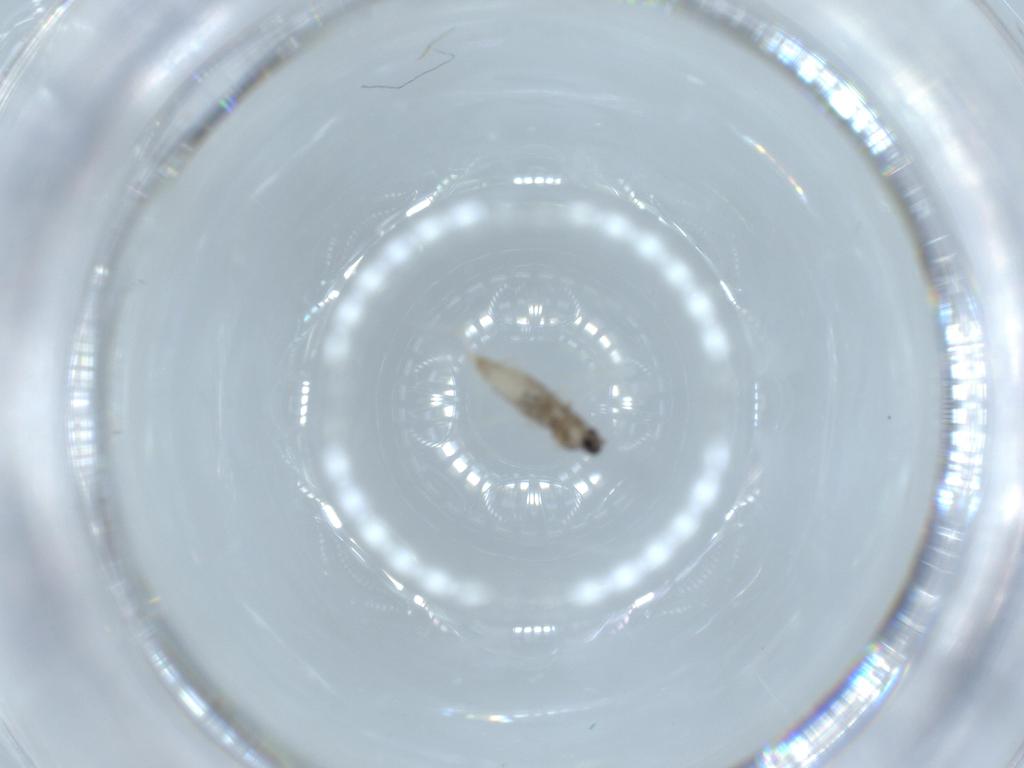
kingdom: Animalia
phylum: Arthropoda
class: Insecta
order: Diptera
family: Cecidomyiidae
